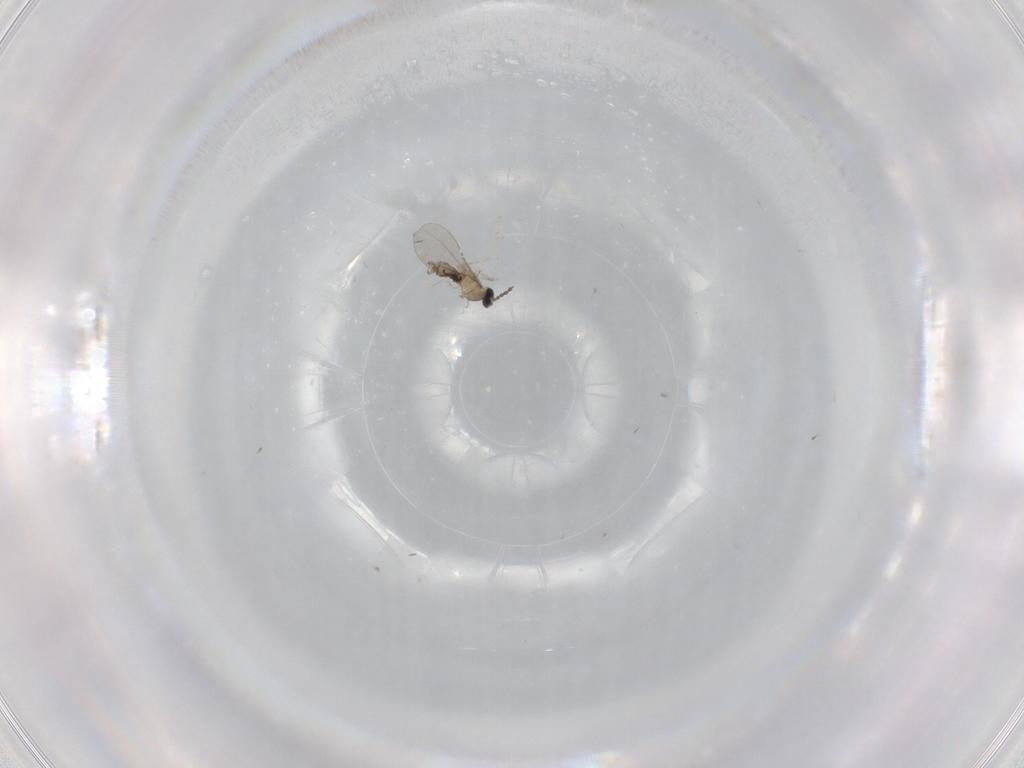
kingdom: Animalia
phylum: Arthropoda
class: Insecta
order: Diptera
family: Cecidomyiidae
